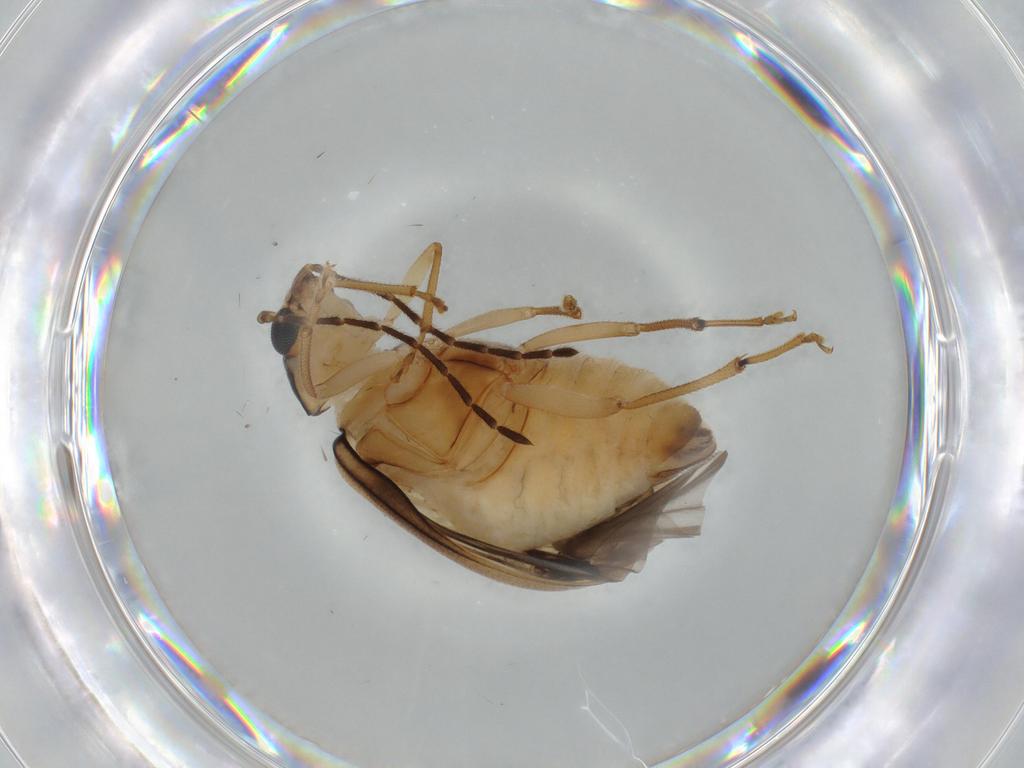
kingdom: Animalia
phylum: Arthropoda
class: Insecta
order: Coleoptera
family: Chrysomelidae
